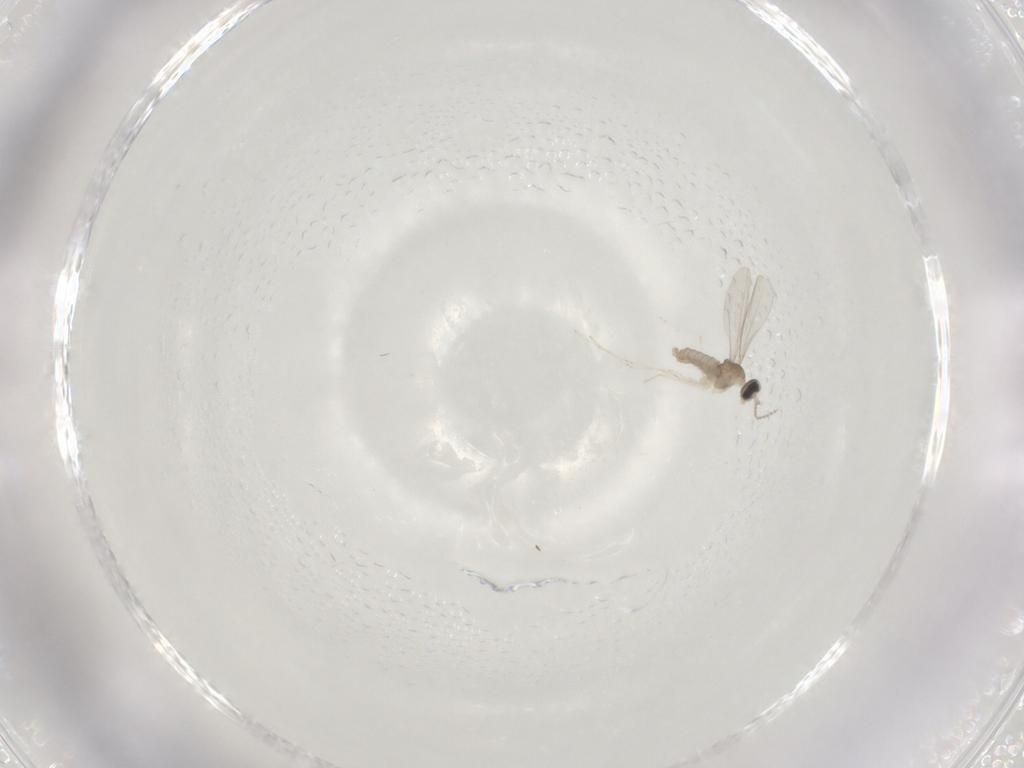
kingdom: Animalia
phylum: Arthropoda
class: Insecta
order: Diptera
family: Cecidomyiidae
